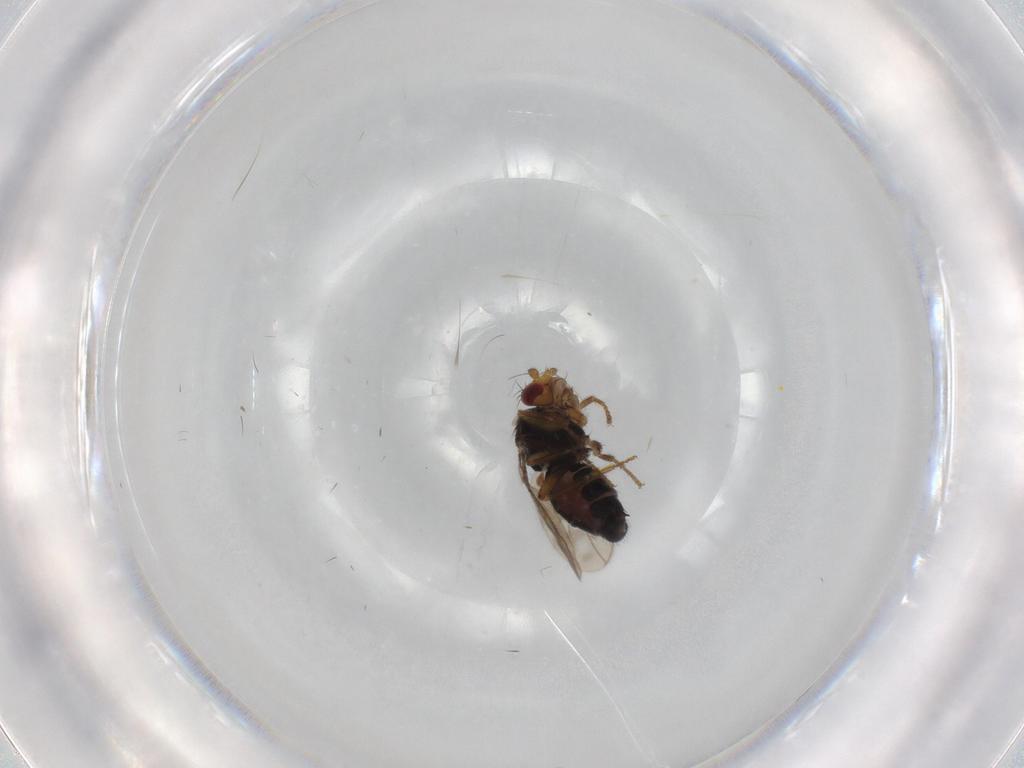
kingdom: Animalia
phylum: Arthropoda
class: Insecta
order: Diptera
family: Sphaeroceridae
